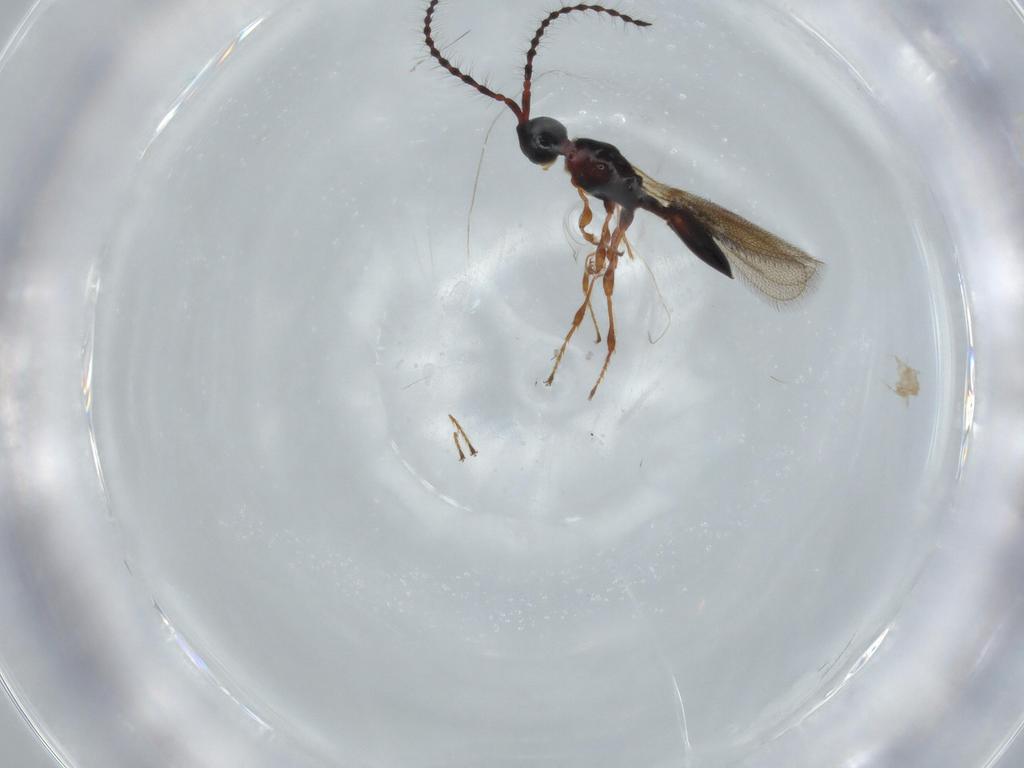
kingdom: Animalia
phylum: Arthropoda
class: Insecta
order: Hymenoptera
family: Diapriidae
